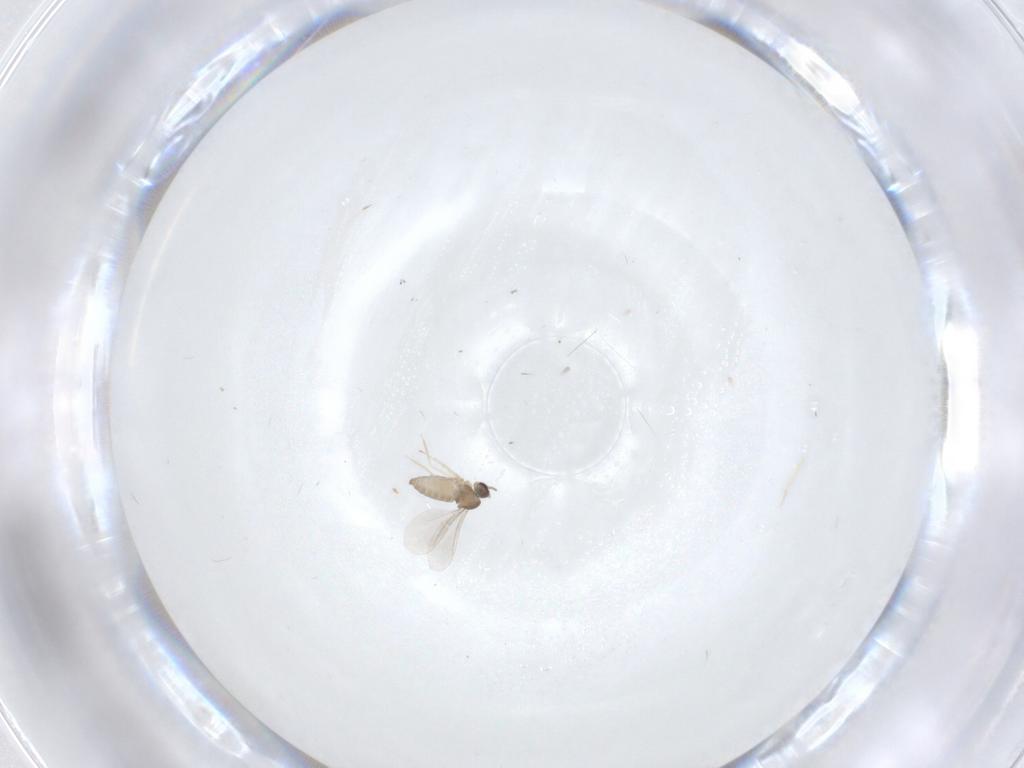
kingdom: Animalia
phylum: Arthropoda
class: Insecta
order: Diptera
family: Cecidomyiidae
